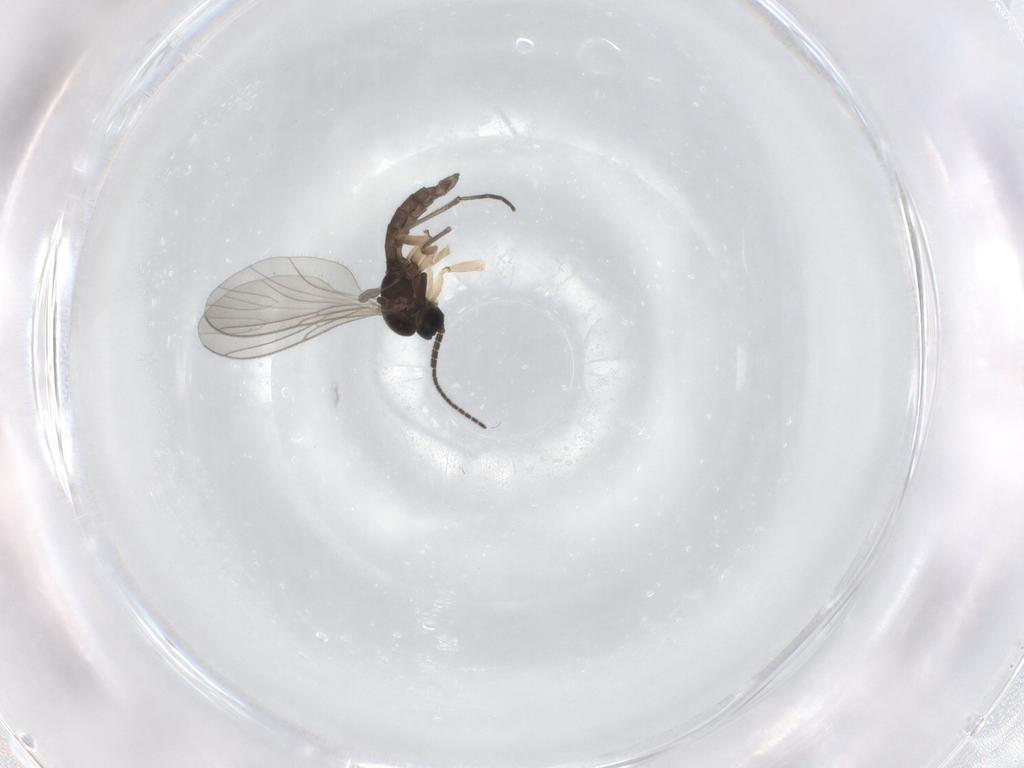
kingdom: Animalia
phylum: Arthropoda
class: Insecta
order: Diptera
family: Sciaridae
